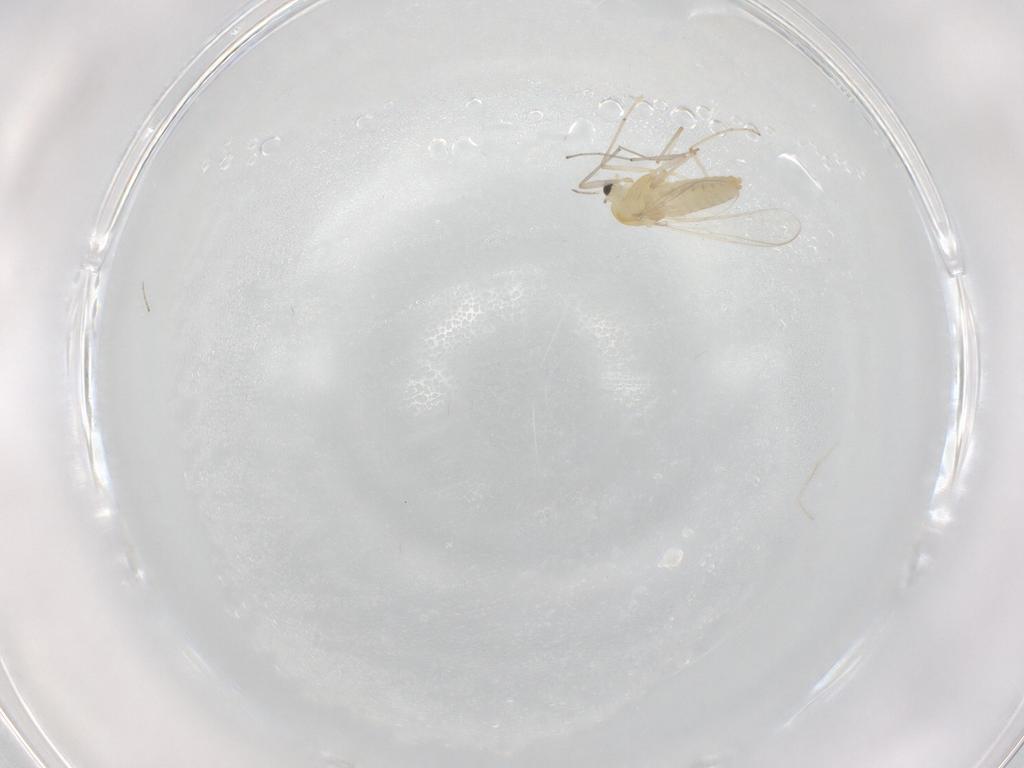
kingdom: Animalia
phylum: Arthropoda
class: Insecta
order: Diptera
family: Chironomidae
